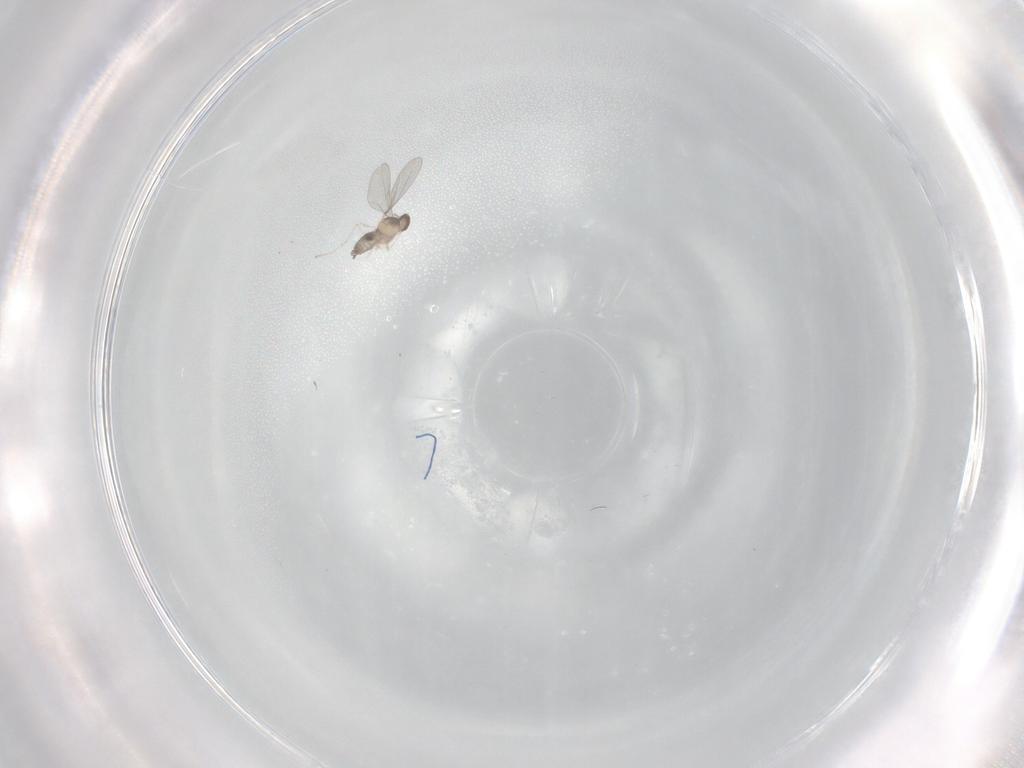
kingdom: Animalia
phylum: Arthropoda
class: Insecta
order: Diptera
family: Cecidomyiidae
